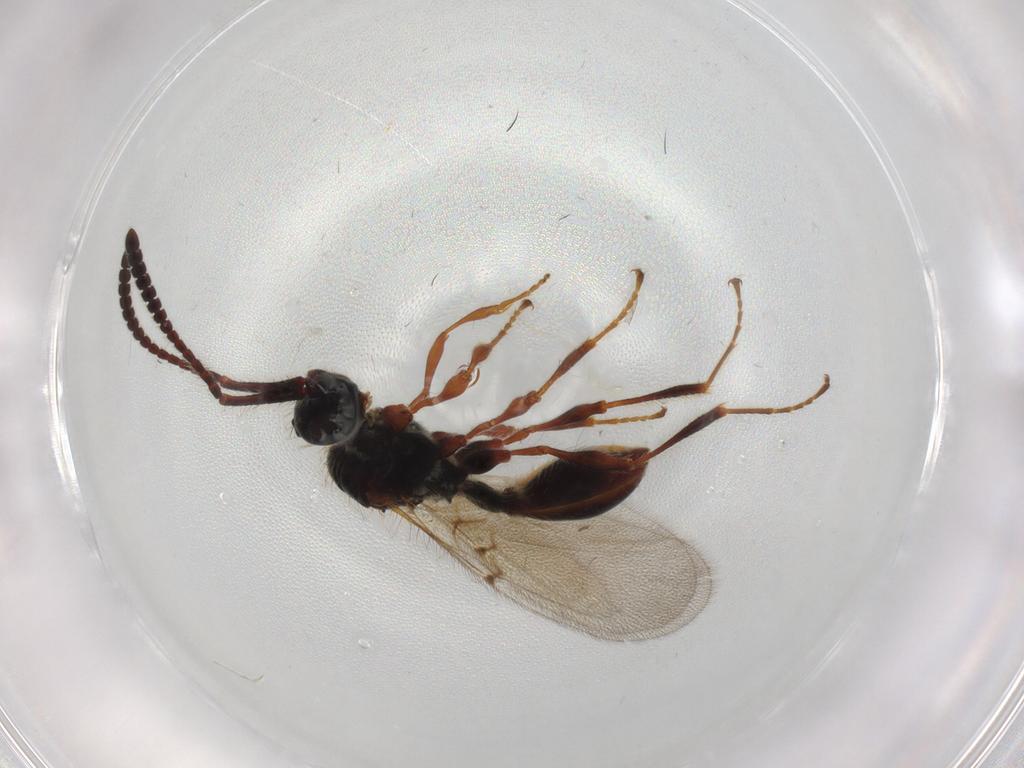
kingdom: Animalia
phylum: Arthropoda
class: Insecta
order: Hymenoptera
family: Diapriidae
